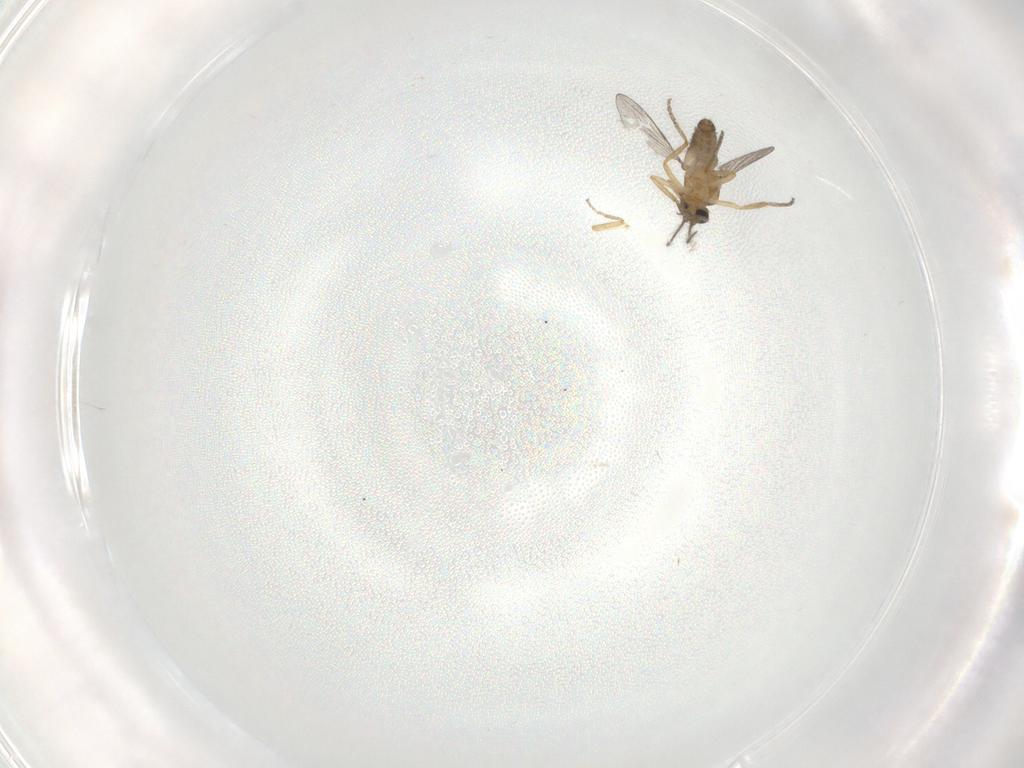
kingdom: Animalia
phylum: Arthropoda
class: Insecta
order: Diptera
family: Ceratopogonidae
